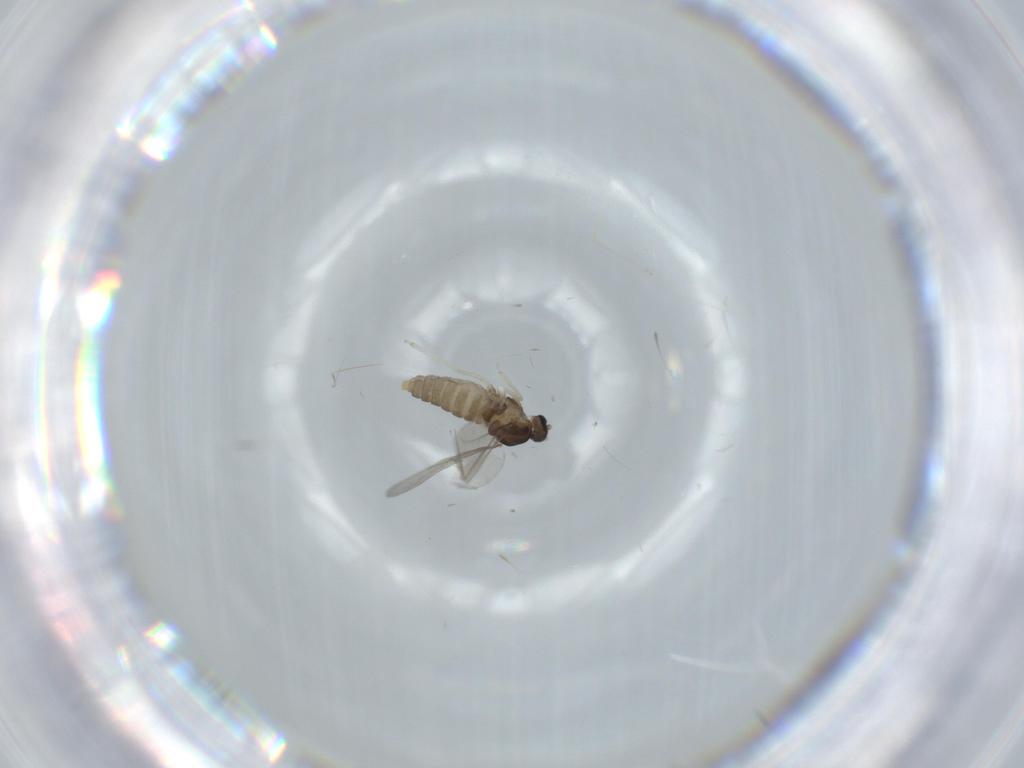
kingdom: Animalia
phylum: Arthropoda
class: Insecta
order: Diptera
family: Cecidomyiidae
